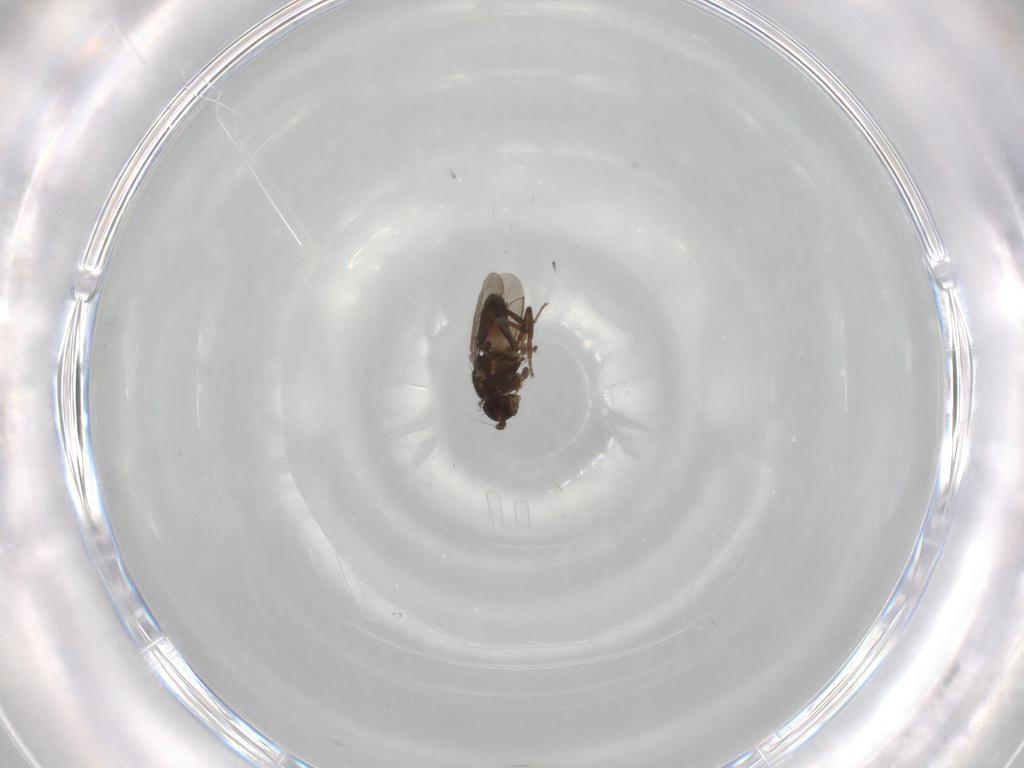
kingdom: Animalia
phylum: Arthropoda
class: Insecta
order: Diptera
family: Sphaeroceridae
